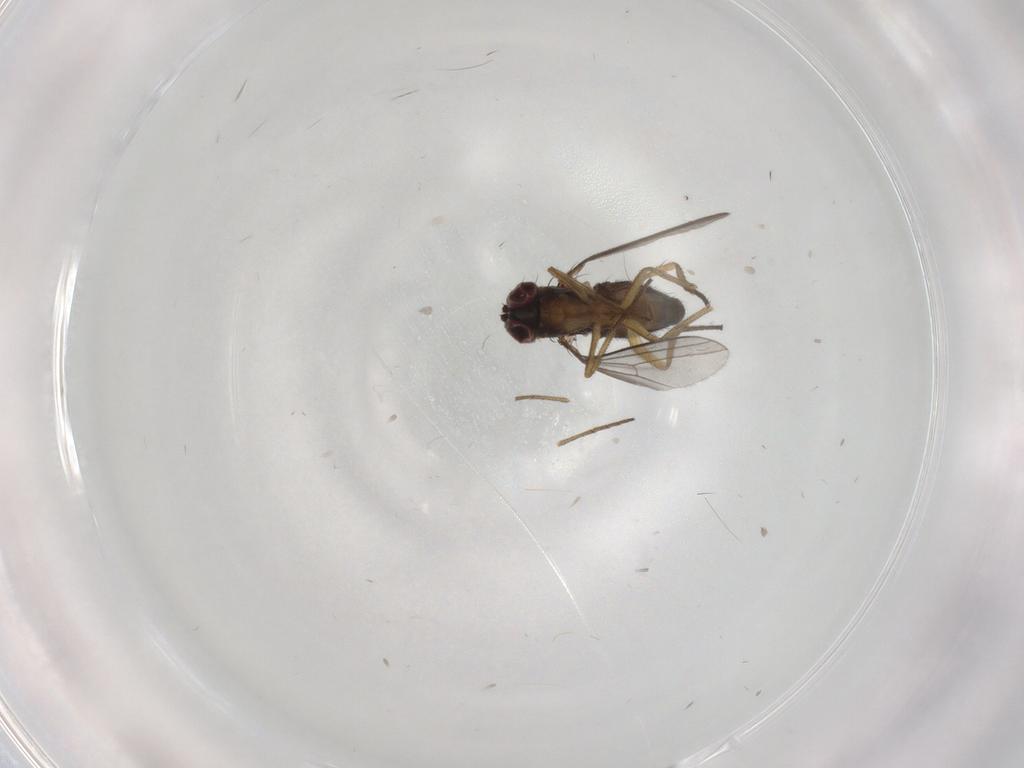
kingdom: Animalia
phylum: Arthropoda
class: Insecta
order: Diptera
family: Dolichopodidae
